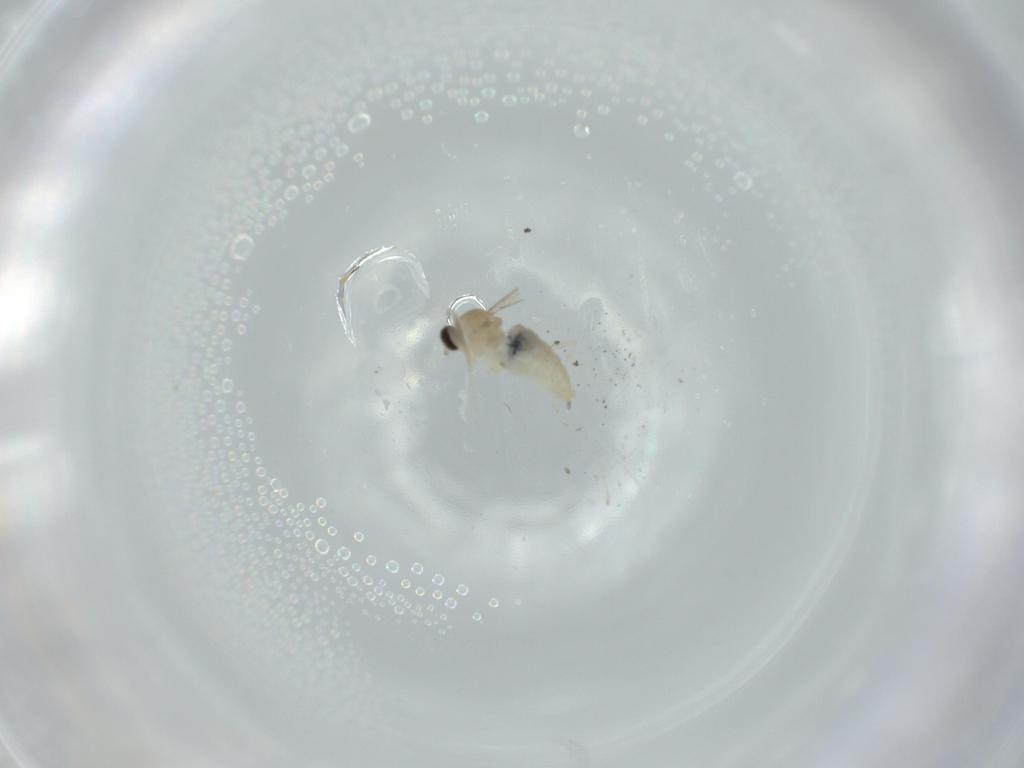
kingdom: Animalia
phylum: Arthropoda
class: Insecta
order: Diptera
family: Cecidomyiidae
